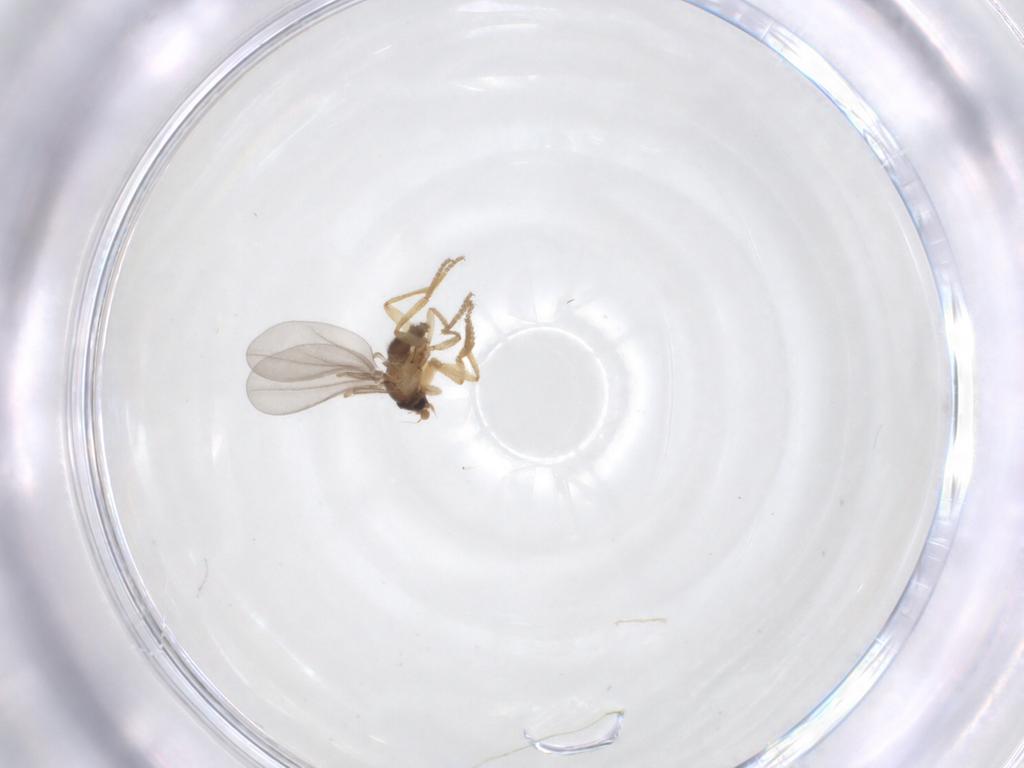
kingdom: Animalia
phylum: Arthropoda
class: Insecta
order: Diptera
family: Phoridae
